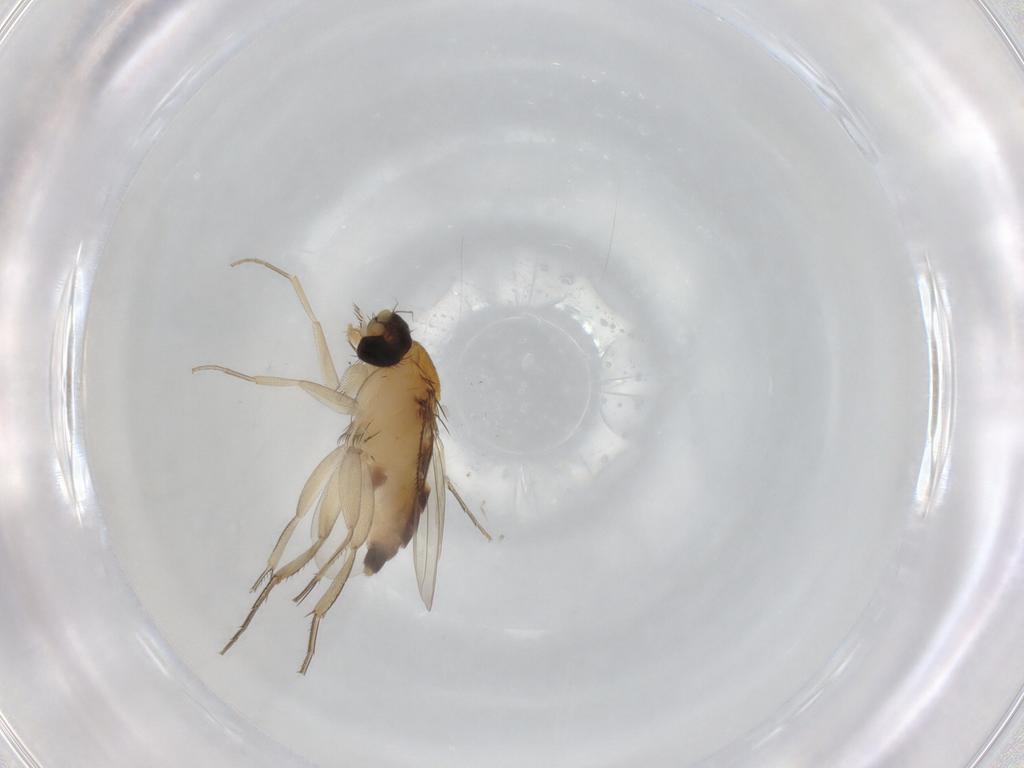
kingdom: Animalia
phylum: Arthropoda
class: Insecta
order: Diptera
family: Phoridae
